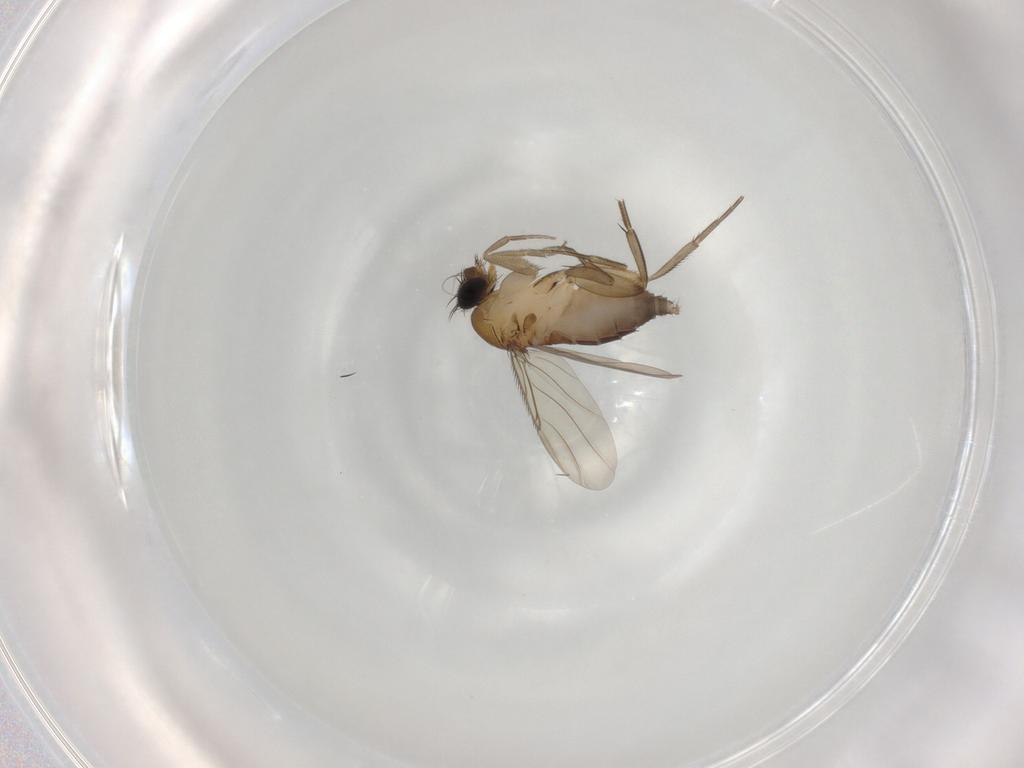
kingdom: Animalia
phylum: Arthropoda
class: Insecta
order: Diptera
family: Phoridae
